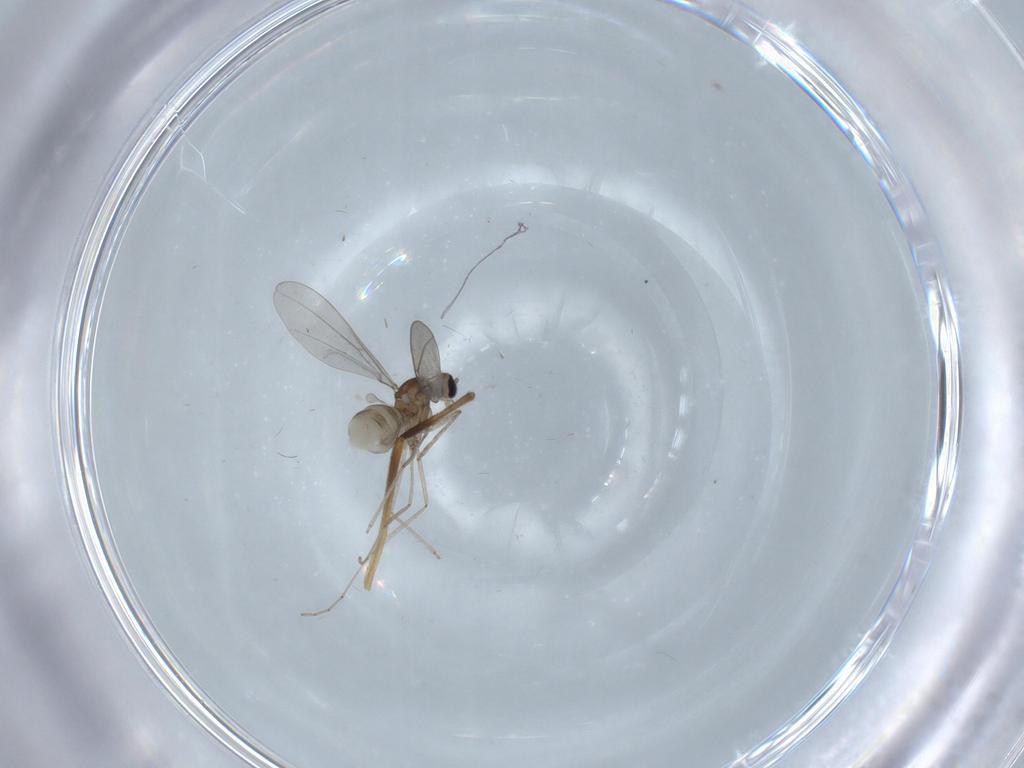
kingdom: Animalia
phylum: Arthropoda
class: Insecta
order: Diptera
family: Cecidomyiidae
